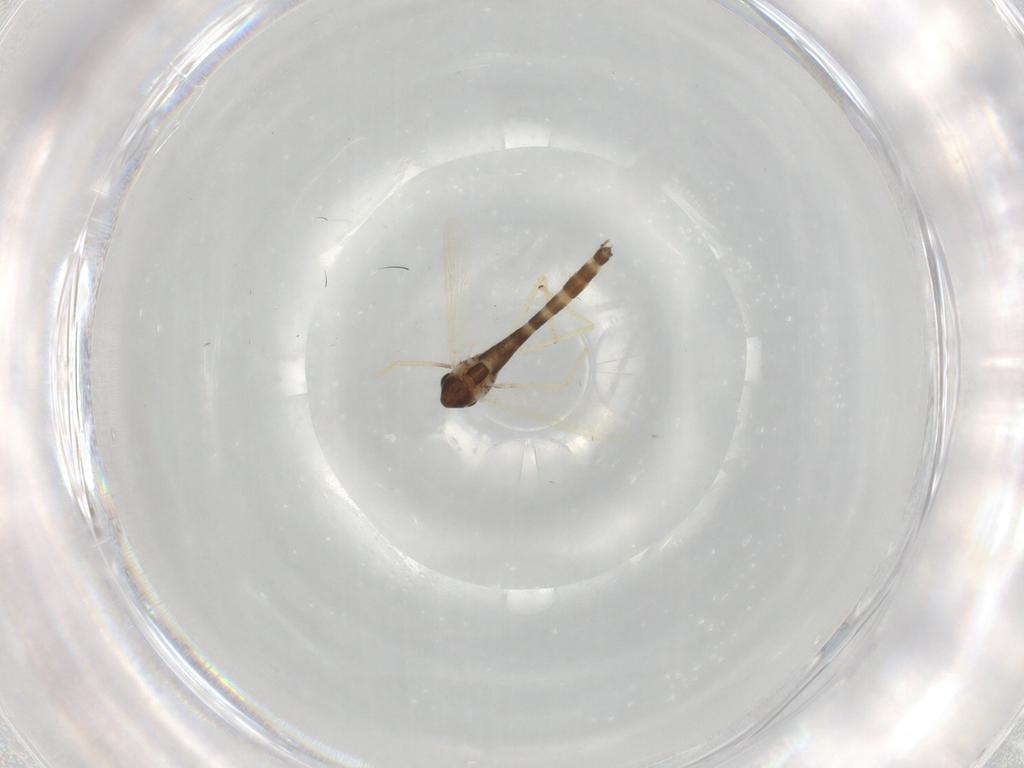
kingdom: Animalia
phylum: Arthropoda
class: Insecta
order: Diptera
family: Chironomidae
